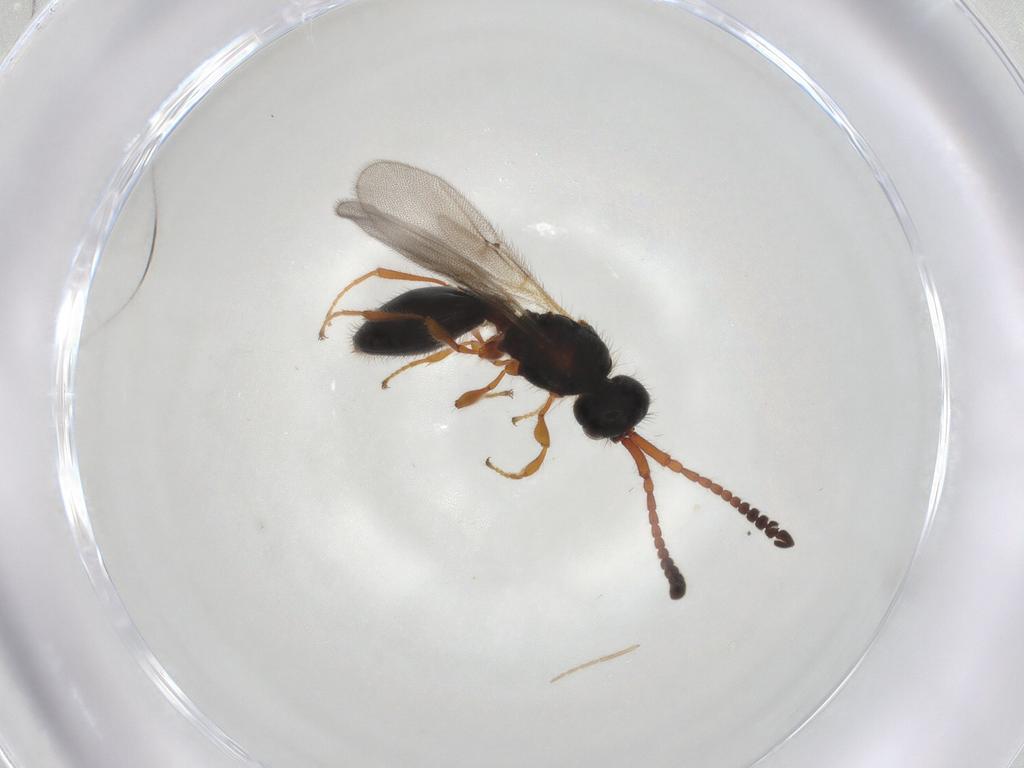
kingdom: Animalia
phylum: Arthropoda
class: Insecta
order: Hymenoptera
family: Diapriidae
